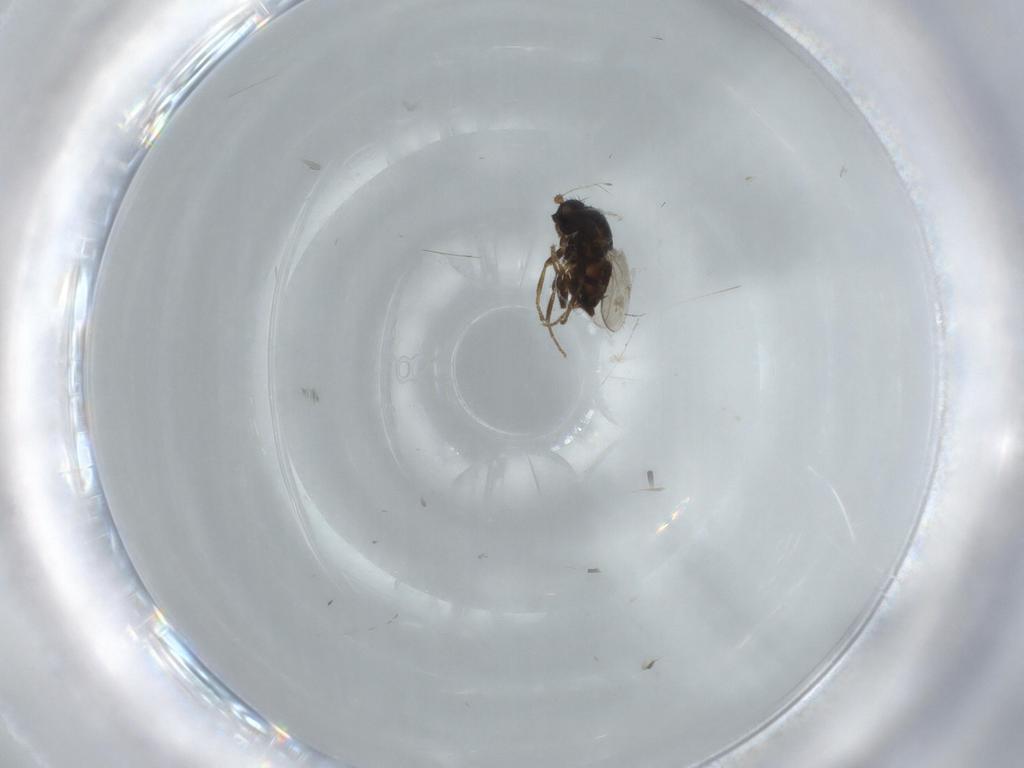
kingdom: Animalia
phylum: Arthropoda
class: Insecta
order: Diptera
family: Sphaeroceridae
